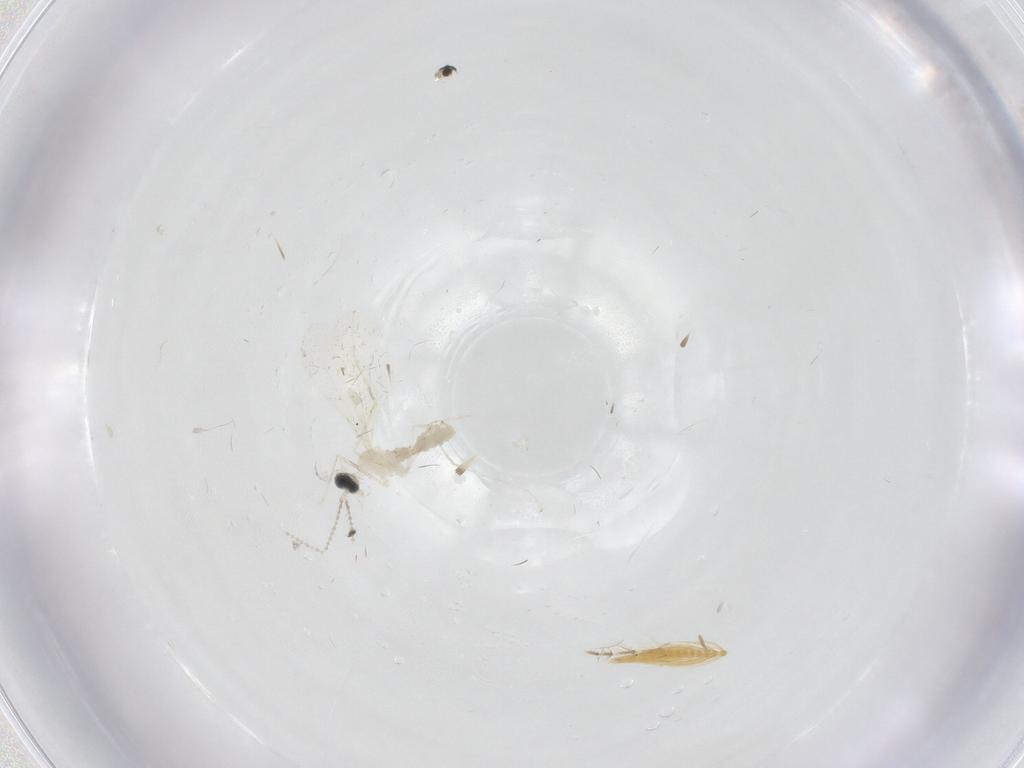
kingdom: Animalia
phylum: Arthropoda
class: Insecta
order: Diptera
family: Ceratopogonidae
